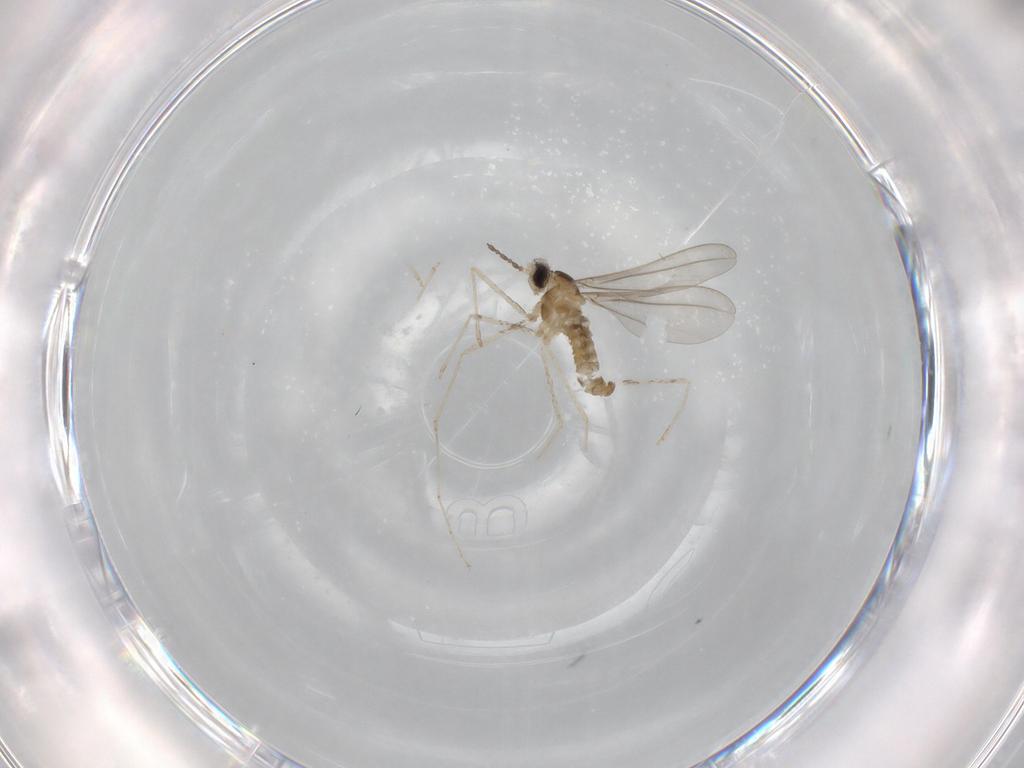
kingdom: Animalia
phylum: Arthropoda
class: Insecta
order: Diptera
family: Cecidomyiidae
